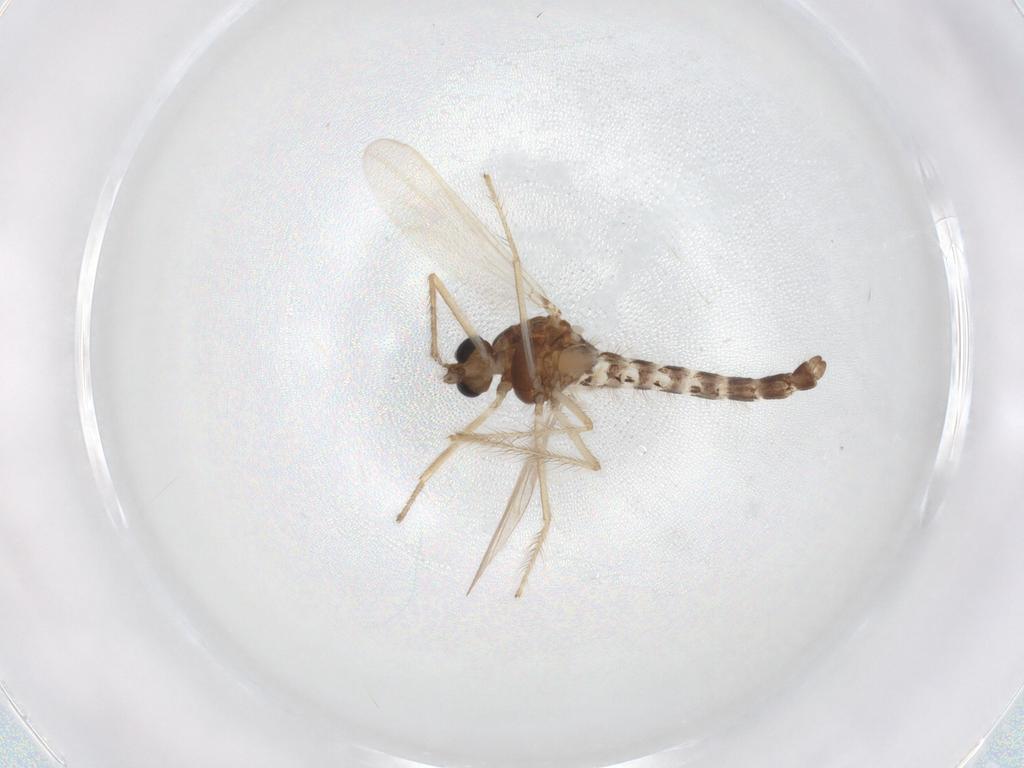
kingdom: Animalia
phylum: Arthropoda
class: Insecta
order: Diptera
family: Chironomidae
